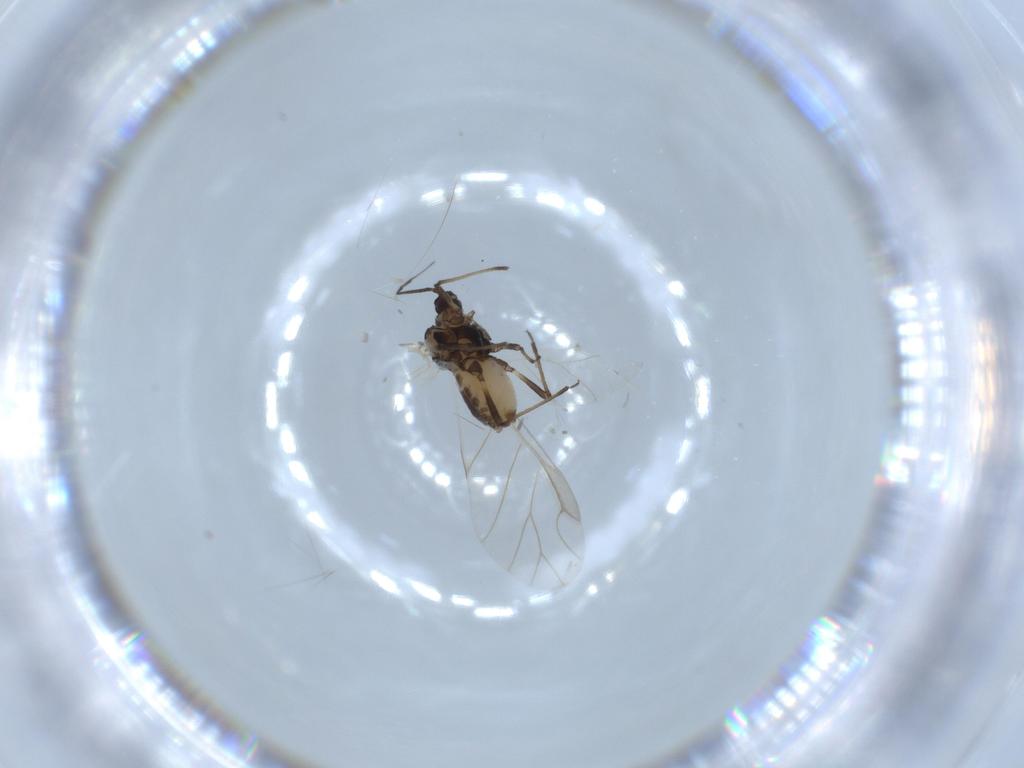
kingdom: Animalia
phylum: Arthropoda
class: Insecta
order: Hemiptera
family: Aphididae
